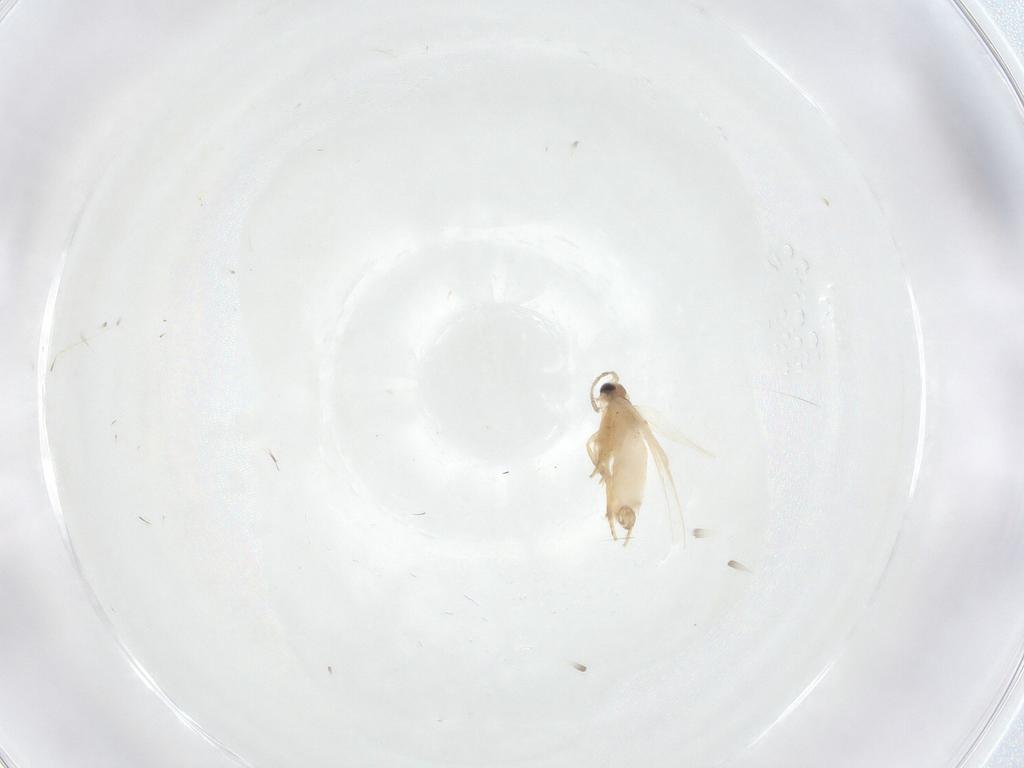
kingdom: Animalia
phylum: Arthropoda
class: Insecta
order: Lepidoptera
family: Nepticulidae
